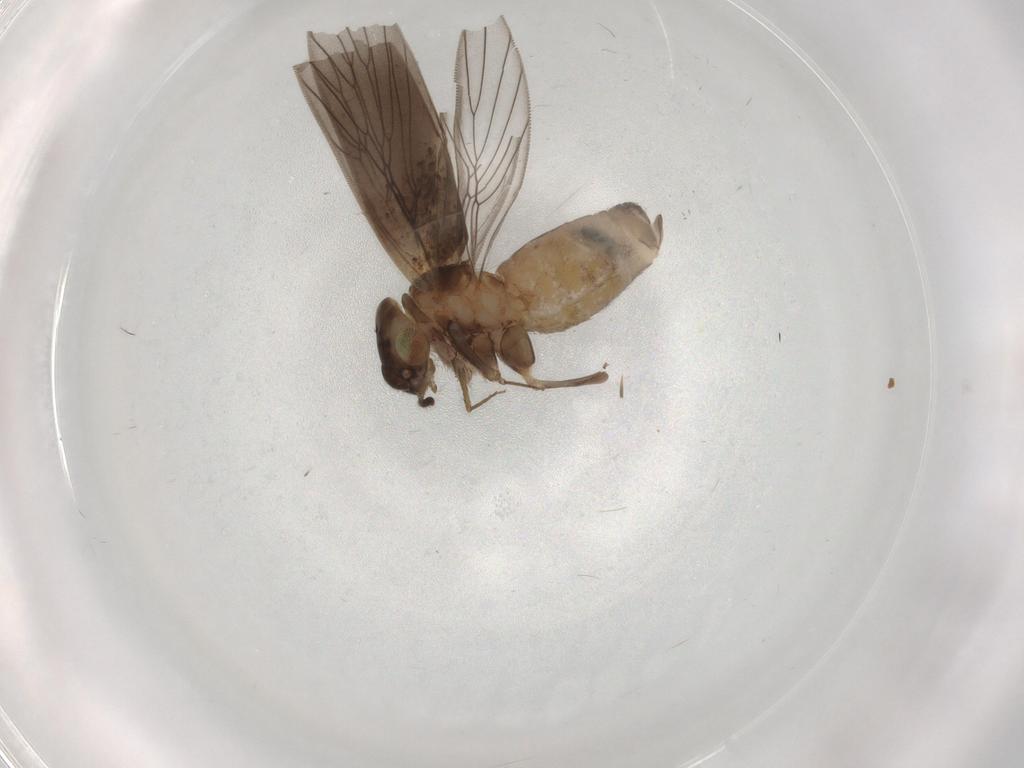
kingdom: Animalia
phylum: Arthropoda
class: Insecta
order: Psocodea
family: Lepidopsocidae
